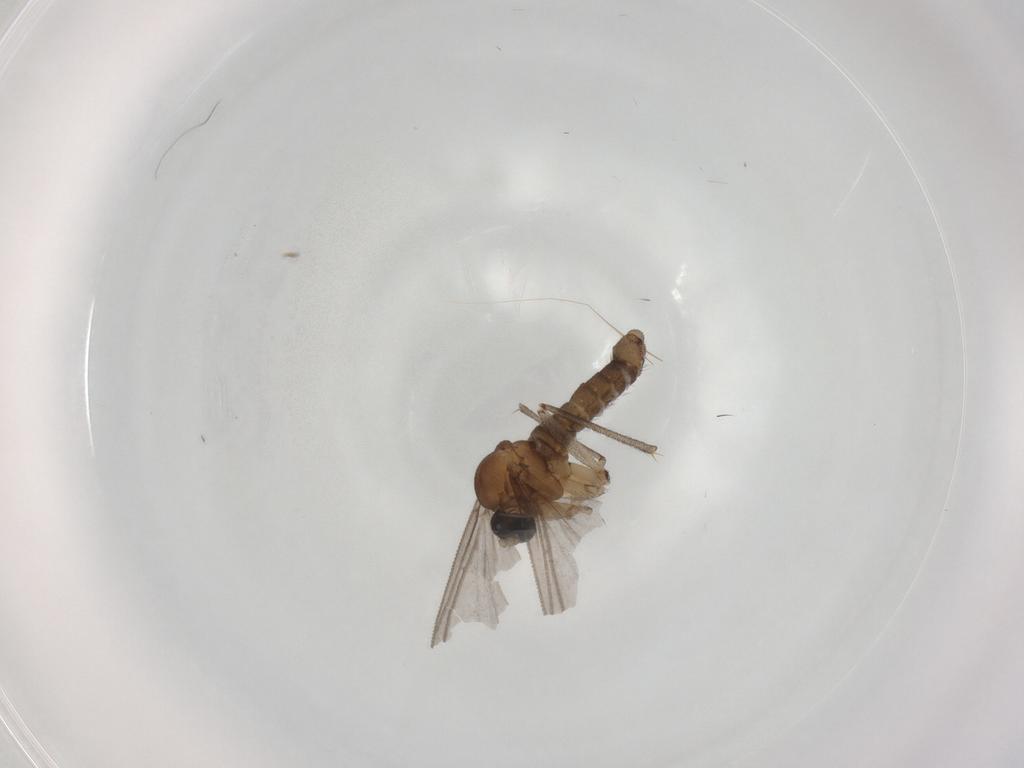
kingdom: Animalia
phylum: Arthropoda
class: Insecta
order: Diptera
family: Sciaridae
